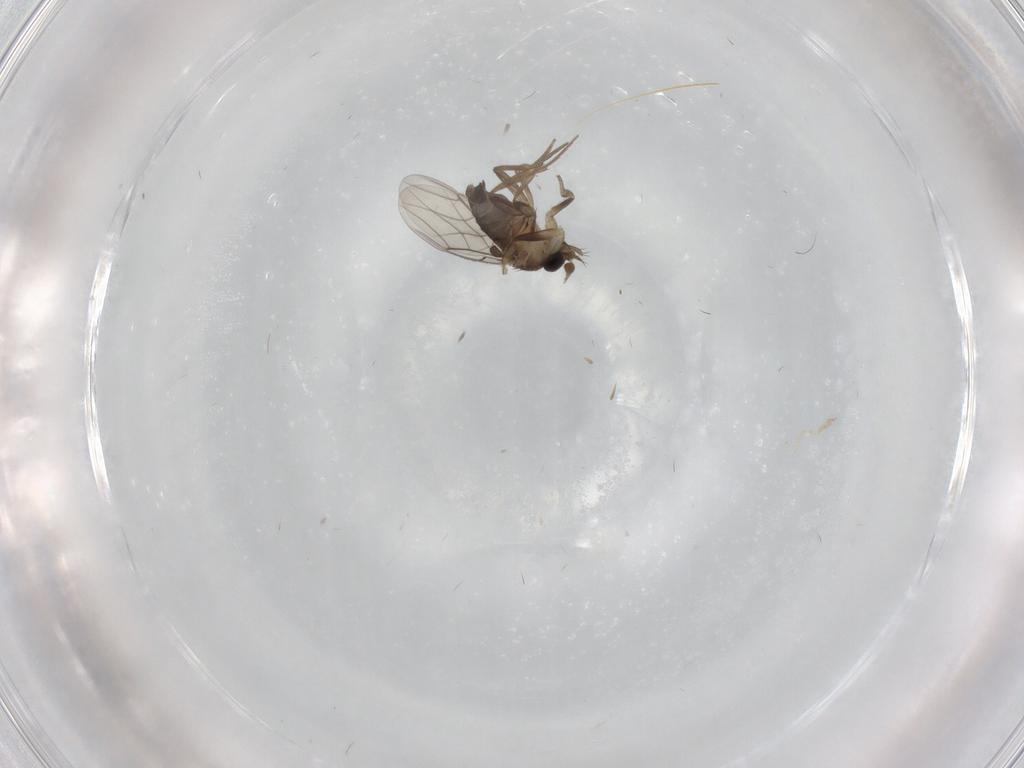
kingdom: Animalia
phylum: Arthropoda
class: Insecta
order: Diptera
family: Phoridae
